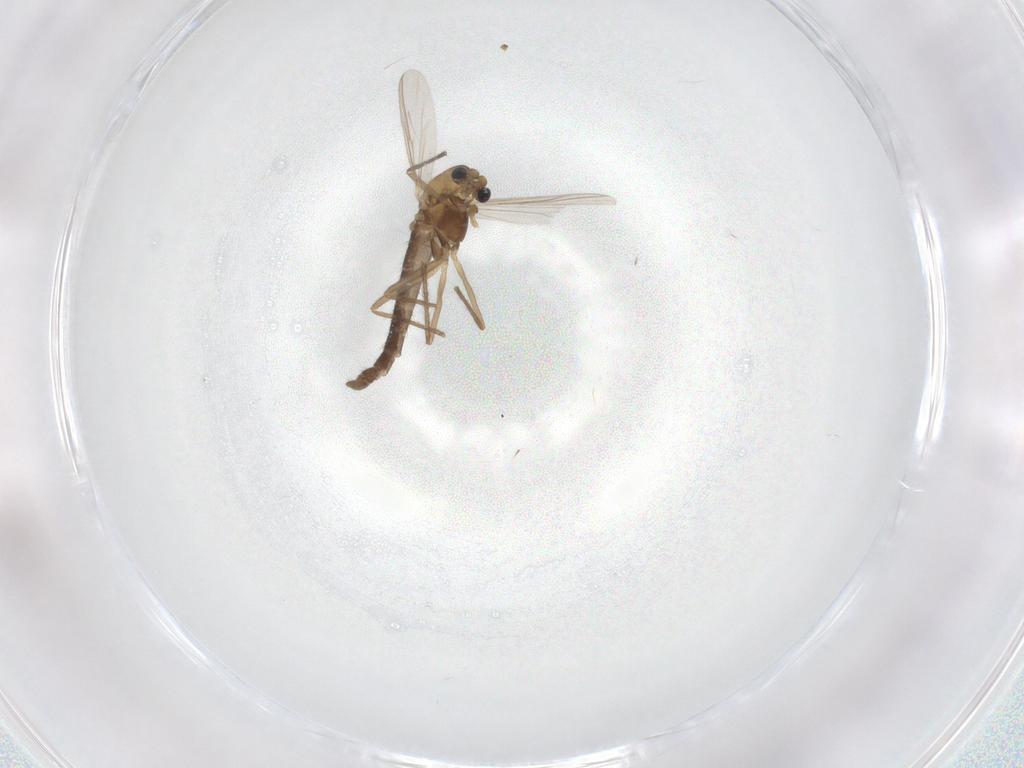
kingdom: Animalia
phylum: Arthropoda
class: Insecta
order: Diptera
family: Chironomidae
